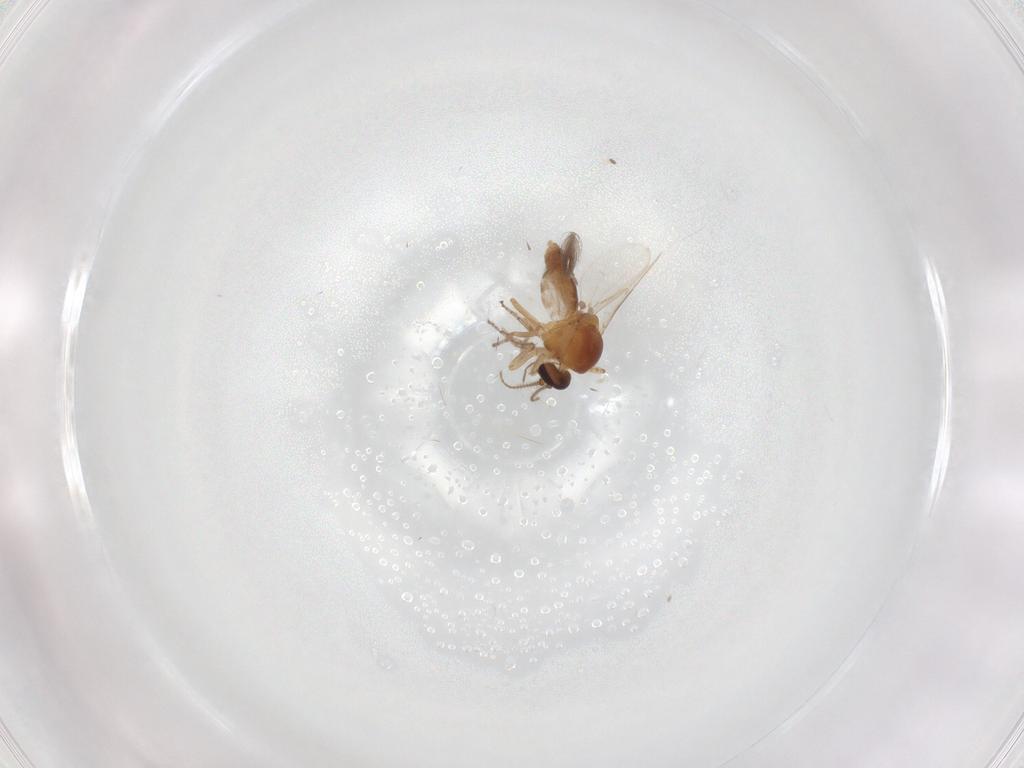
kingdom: Animalia
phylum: Arthropoda
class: Insecta
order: Diptera
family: Ceratopogonidae
